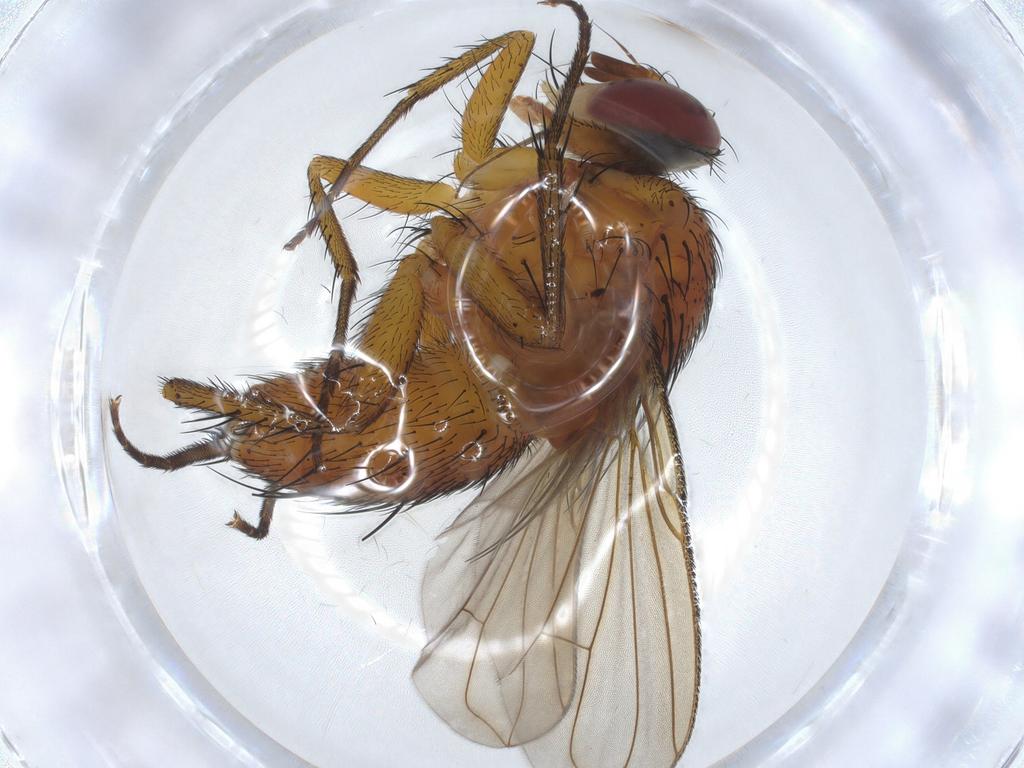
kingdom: Animalia
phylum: Arthropoda
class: Insecta
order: Diptera
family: Tachinidae
